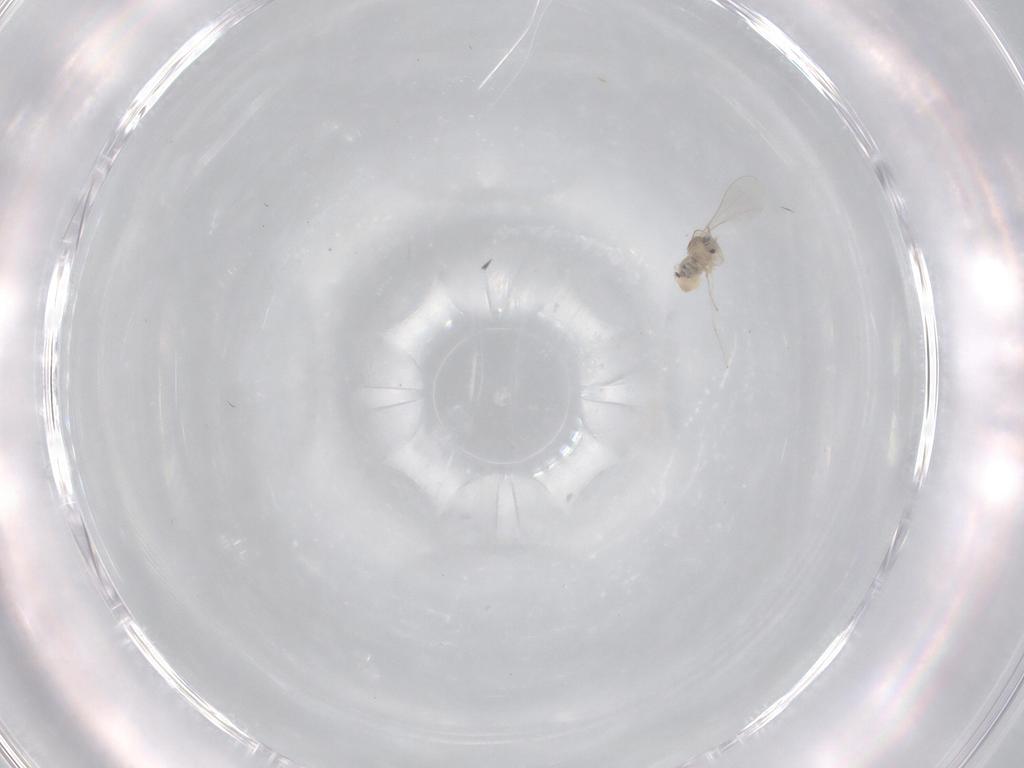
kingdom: Animalia
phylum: Arthropoda
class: Insecta
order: Diptera
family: Cecidomyiidae
